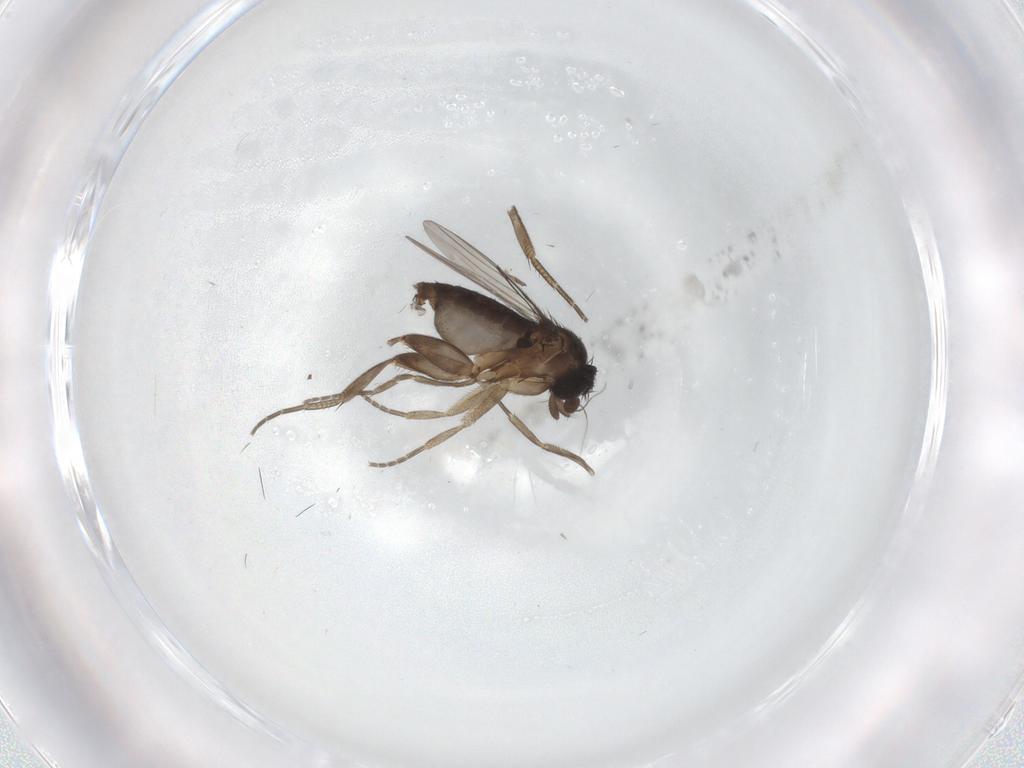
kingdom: Animalia
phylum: Arthropoda
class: Insecta
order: Diptera
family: Phoridae
